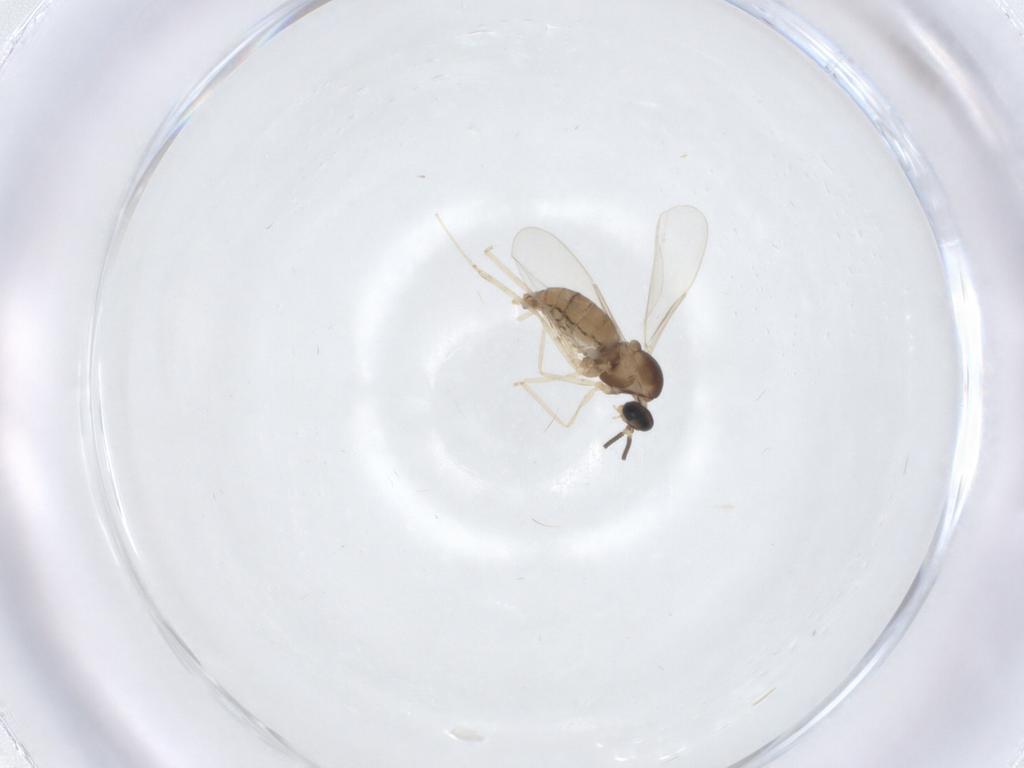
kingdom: Animalia
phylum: Arthropoda
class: Insecta
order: Diptera
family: Cecidomyiidae
